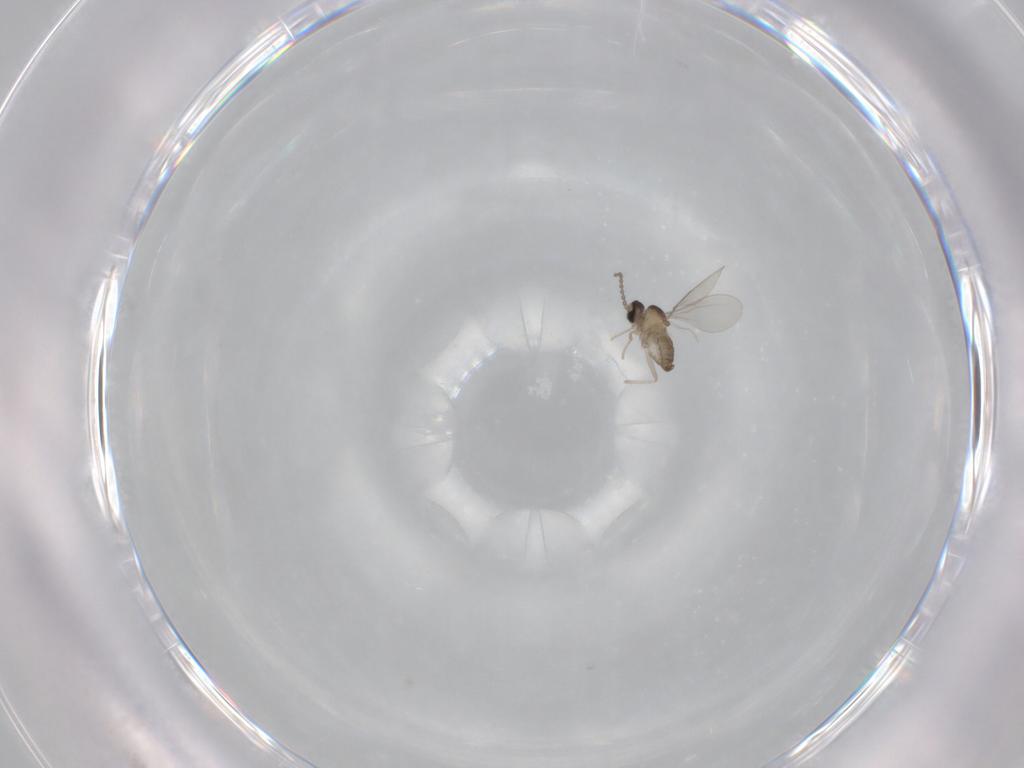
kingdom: Animalia
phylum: Arthropoda
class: Insecta
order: Diptera
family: Cecidomyiidae
